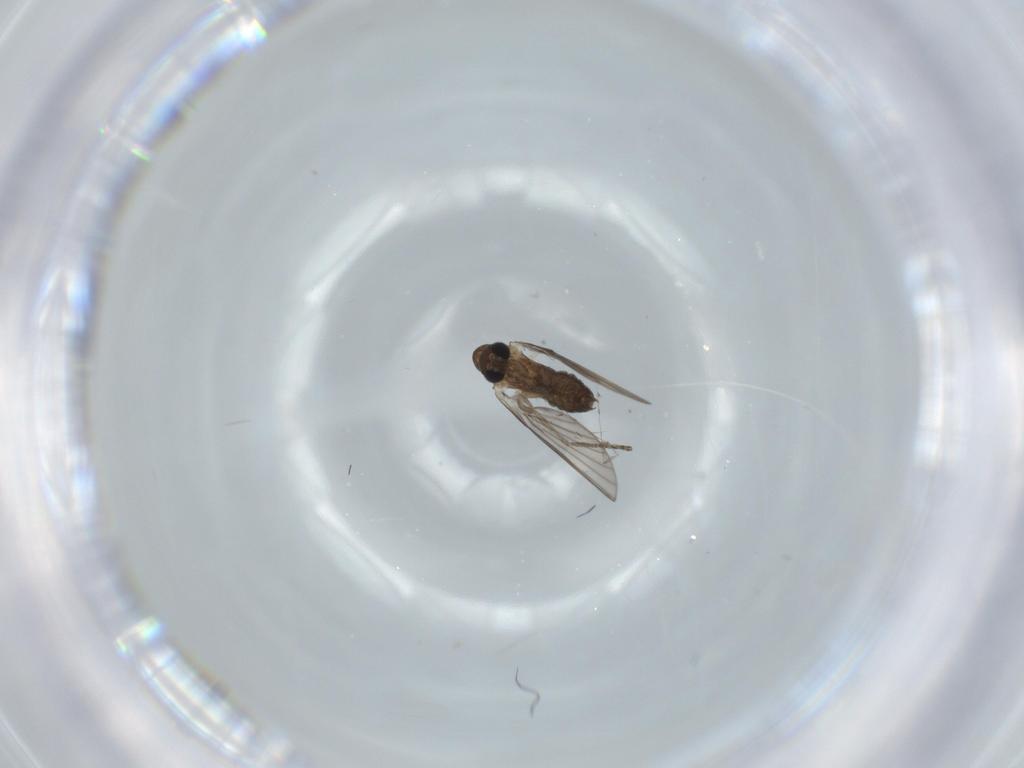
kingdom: Animalia
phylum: Arthropoda
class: Insecta
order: Diptera
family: Psychodidae
